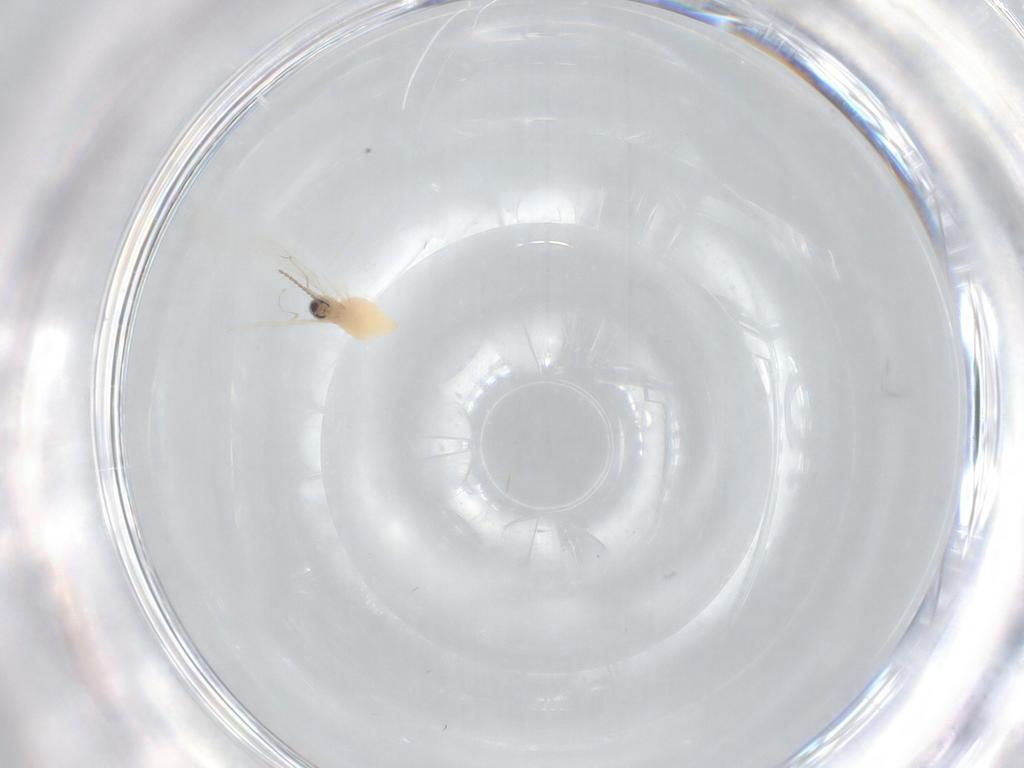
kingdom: Animalia
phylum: Arthropoda
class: Insecta
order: Diptera
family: Cecidomyiidae
